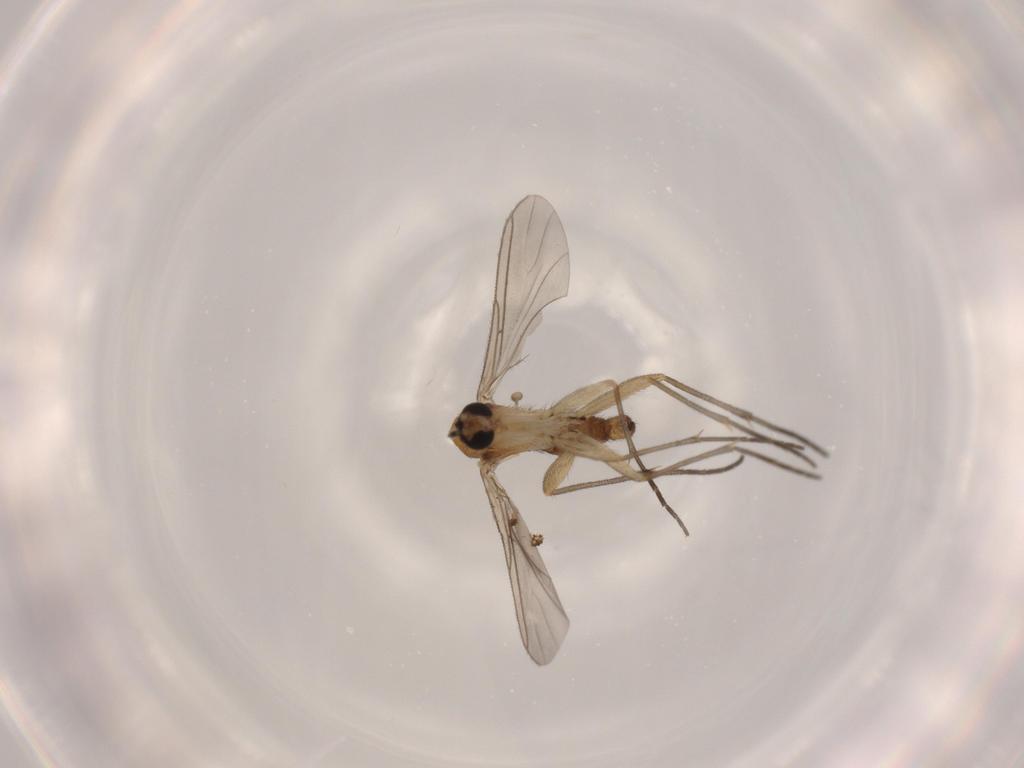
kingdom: Animalia
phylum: Arthropoda
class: Insecta
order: Diptera
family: Sciaridae
